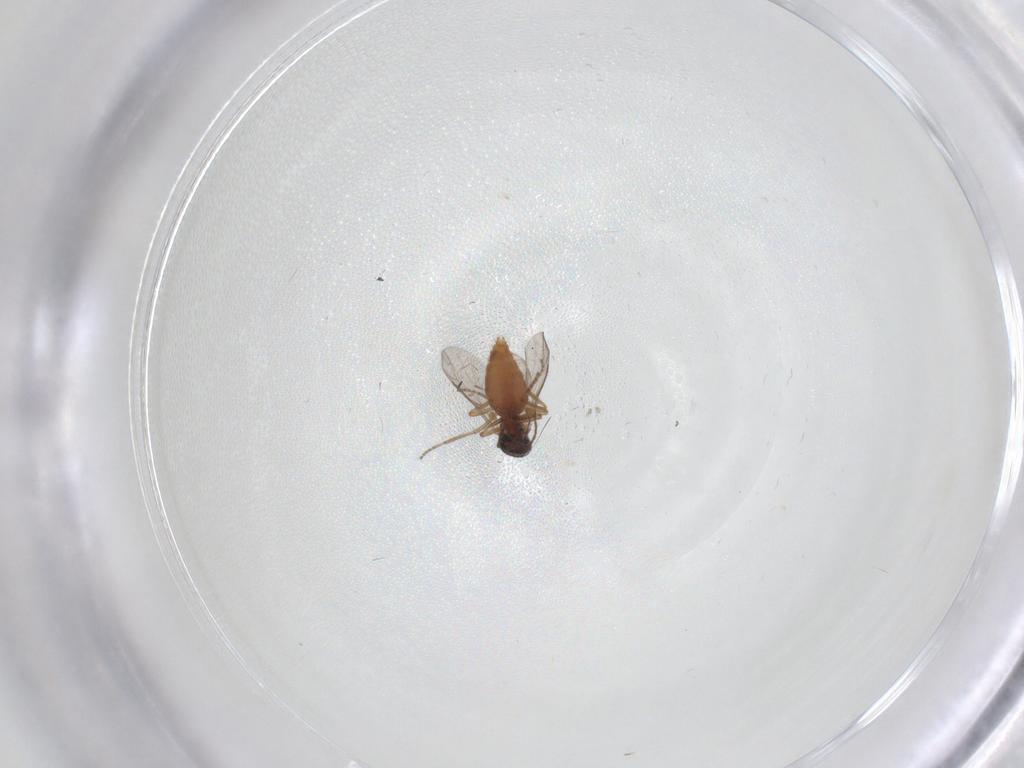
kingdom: Animalia
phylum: Arthropoda
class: Insecta
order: Diptera
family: Ceratopogonidae
